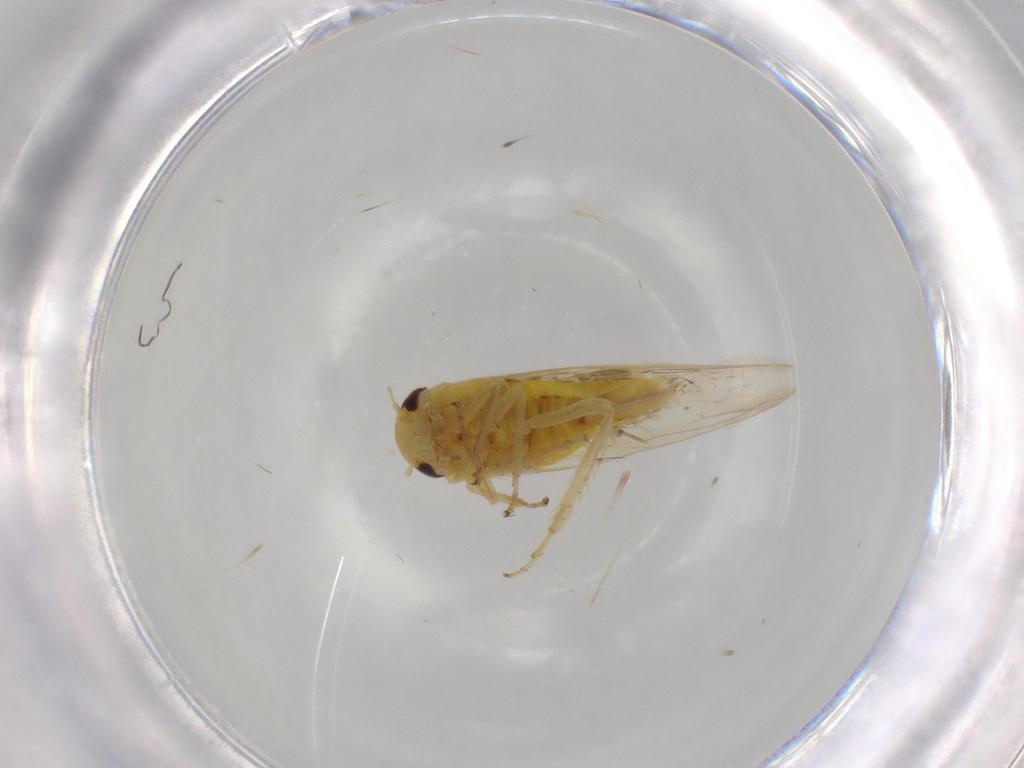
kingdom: Animalia
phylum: Arthropoda
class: Insecta
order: Hemiptera
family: Cicadellidae
